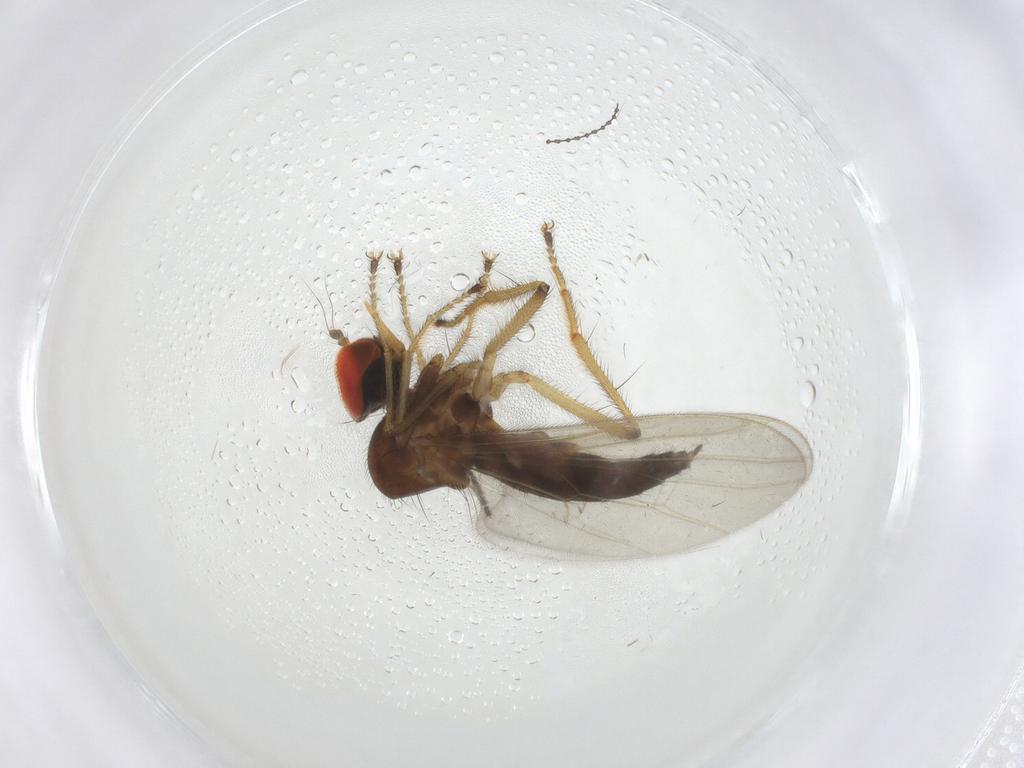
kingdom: Animalia
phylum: Arthropoda
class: Insecta
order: Diptera
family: Hybotidae
